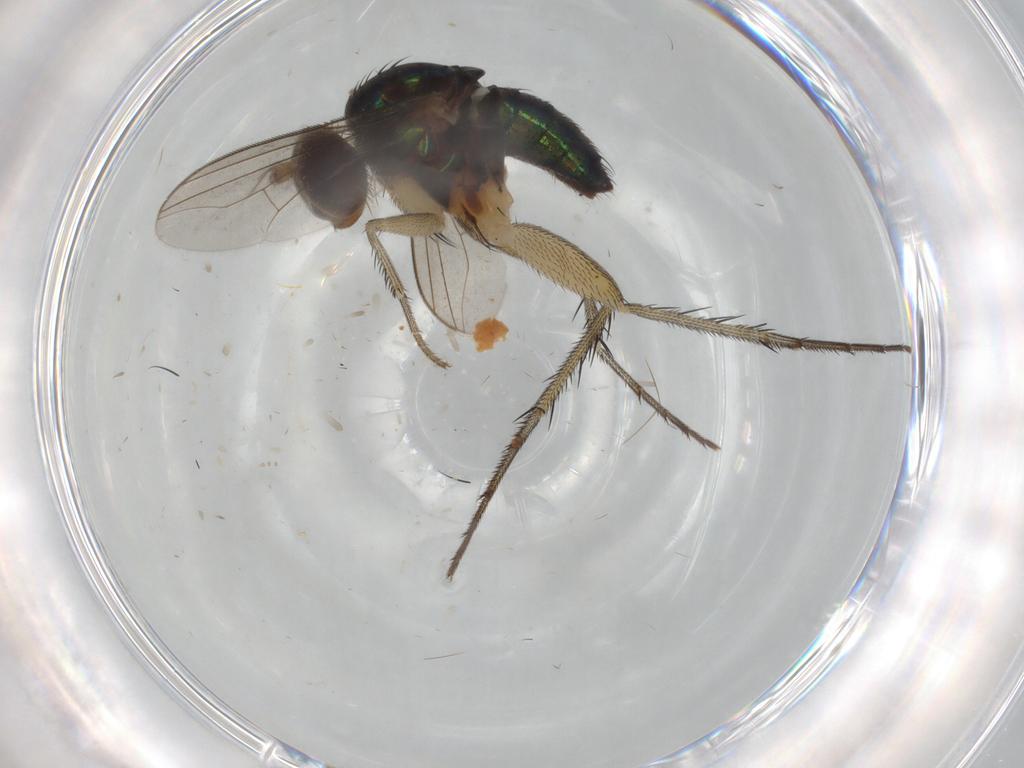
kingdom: Animalia
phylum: Arthropoda
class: Insecta
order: Diptera
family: Dolichopodidae
